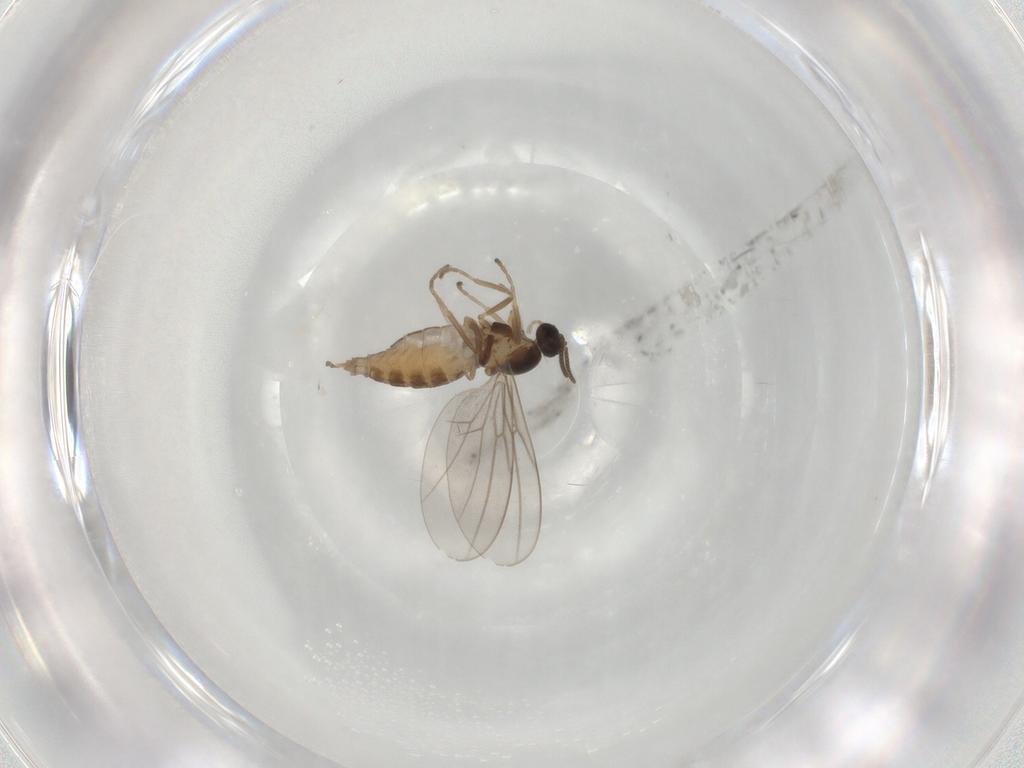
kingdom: Animalia
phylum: Arthropoda
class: Insecta
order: Diptera
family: Cecidomyiidae
